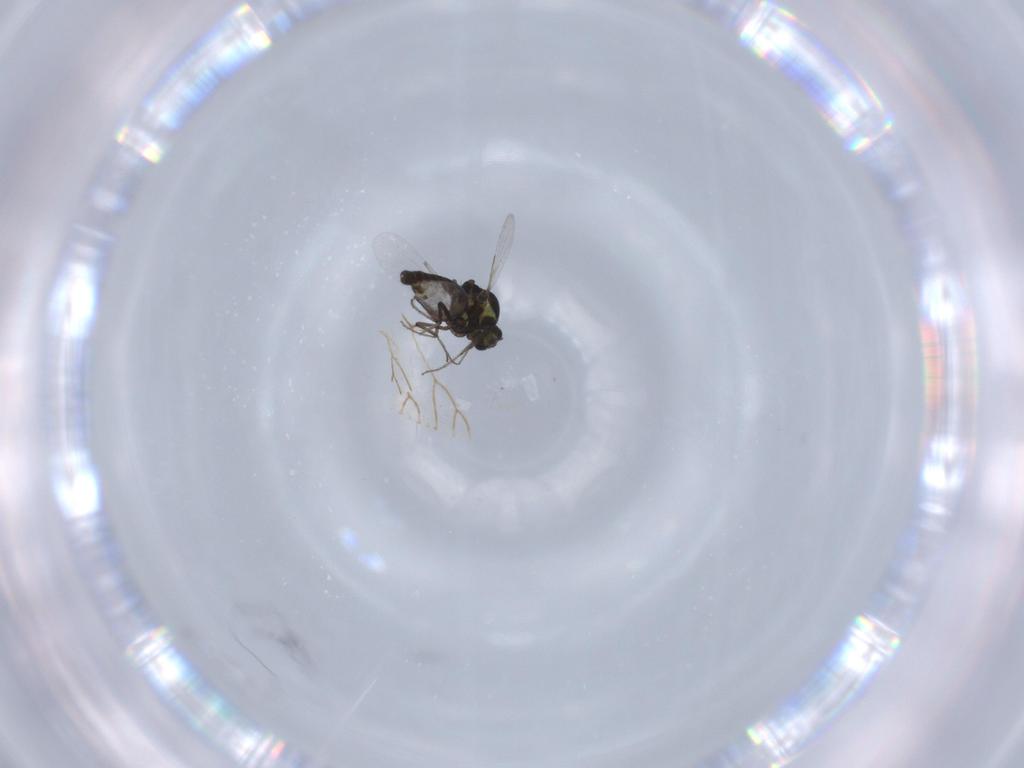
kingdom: Animalia
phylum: Arthropoda
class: Insecta
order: Diptera
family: Ceratopogonidae
